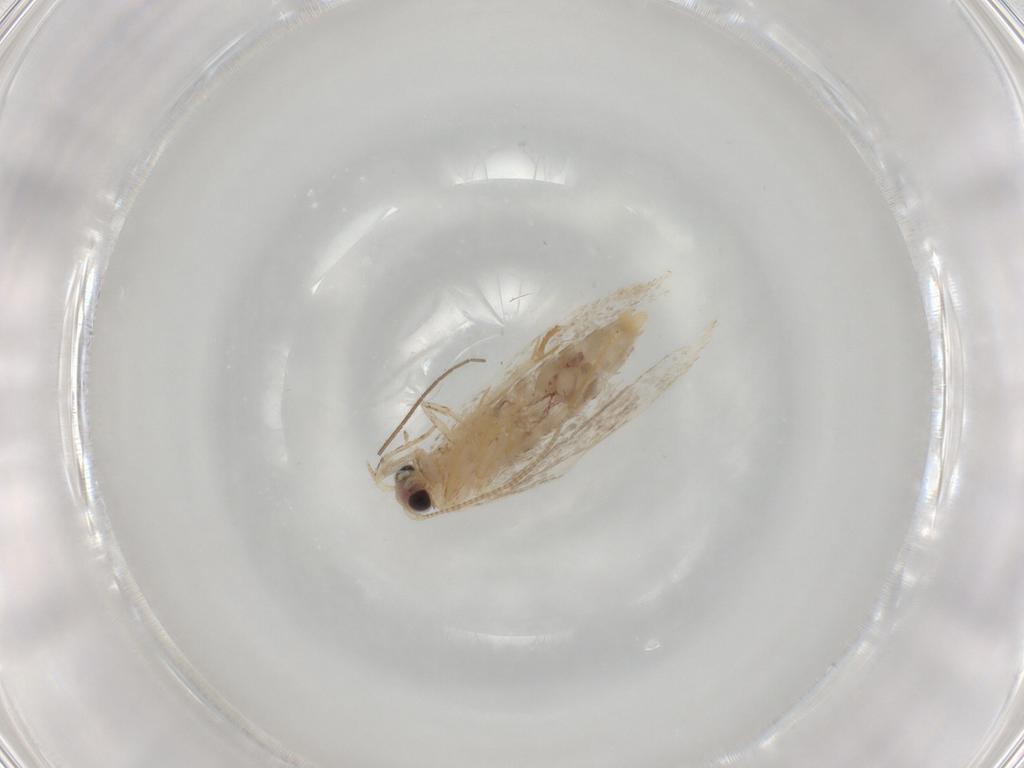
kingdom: Animalia
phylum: Arthropoda
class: Insecta
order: Lepidoptera
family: Nepticulidae
